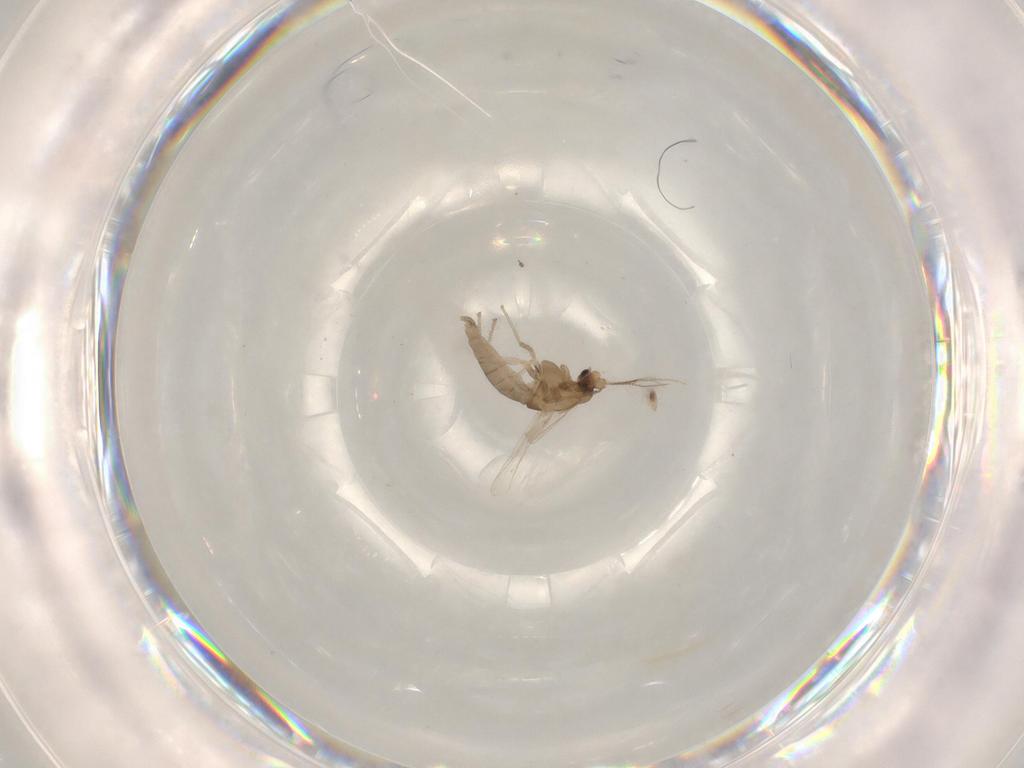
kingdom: Animalia
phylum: Arthropoda
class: Insecta
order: Diptera
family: Chironomidae
